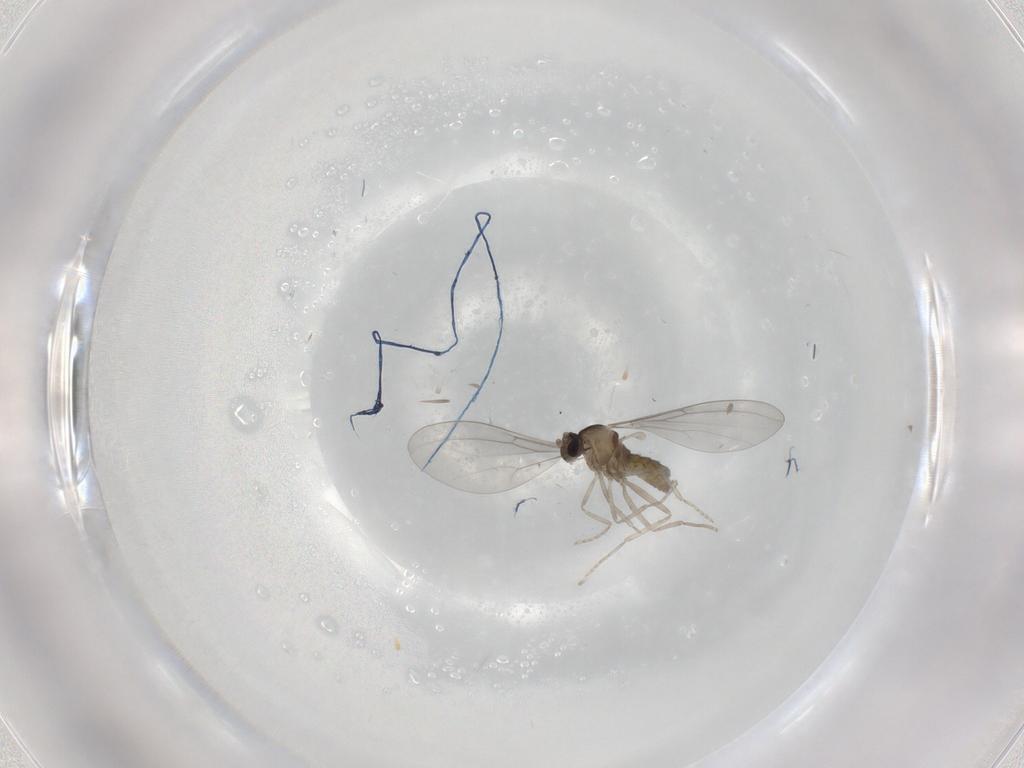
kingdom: Animalia
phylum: Arthropoda
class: Insecta
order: Diptera
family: Cecidomyiidae
